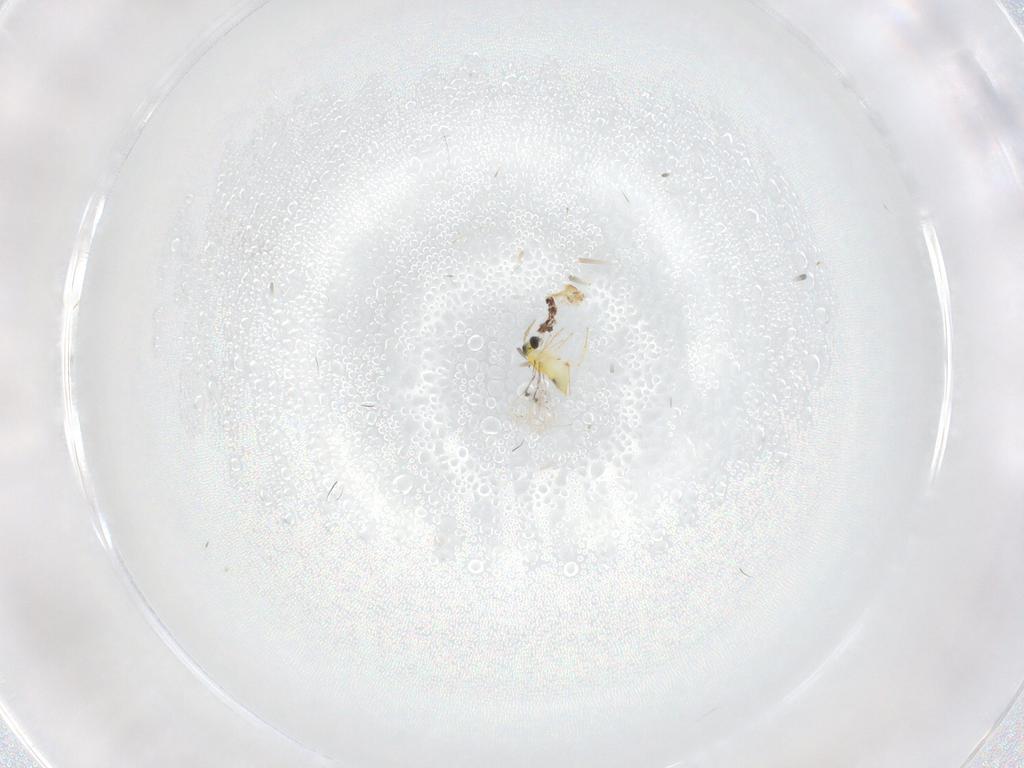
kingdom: Animalia
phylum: Arthropoda
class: Insecta
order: Hymenoptera
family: Trichogrammatidae
